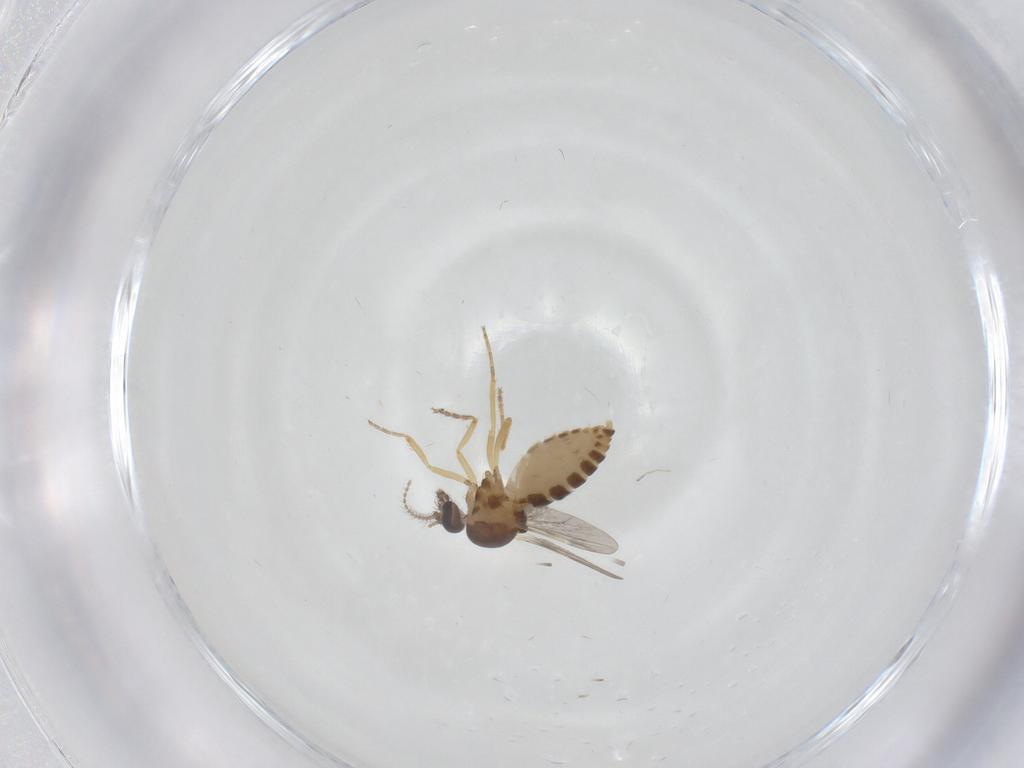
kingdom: Animalia
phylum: Arthropoda
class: Insecta
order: Diptera
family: Ceratopogonidae
